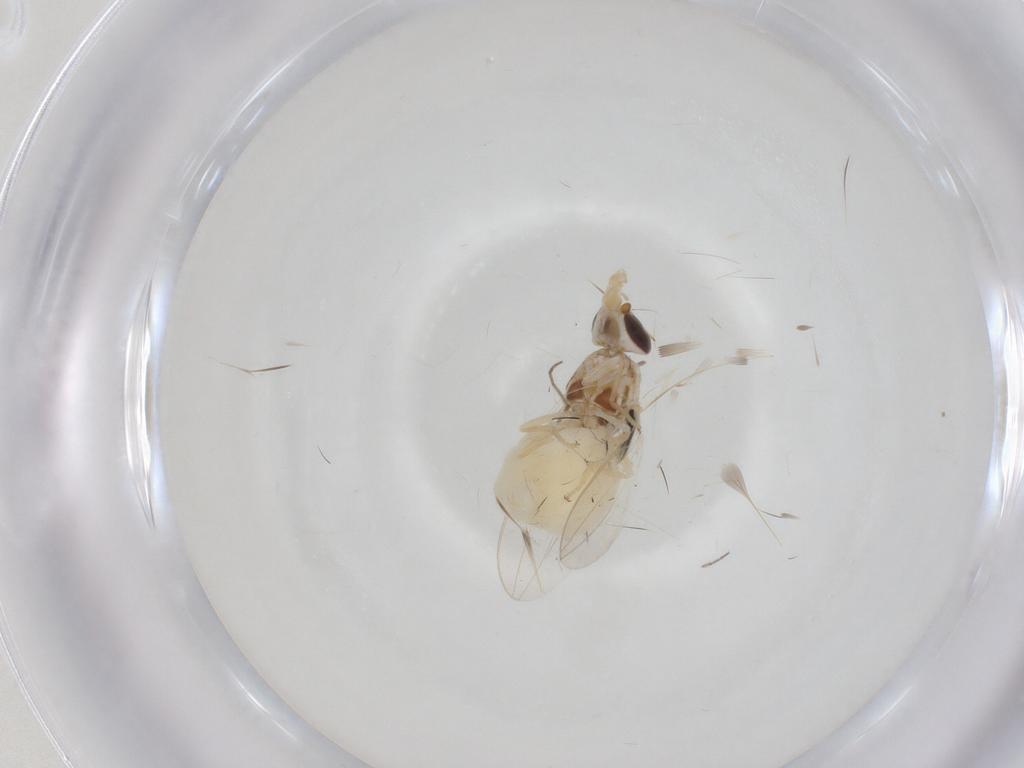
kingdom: Animalia
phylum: Arthropoda
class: Insecta
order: Diptera
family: Chloropidae
